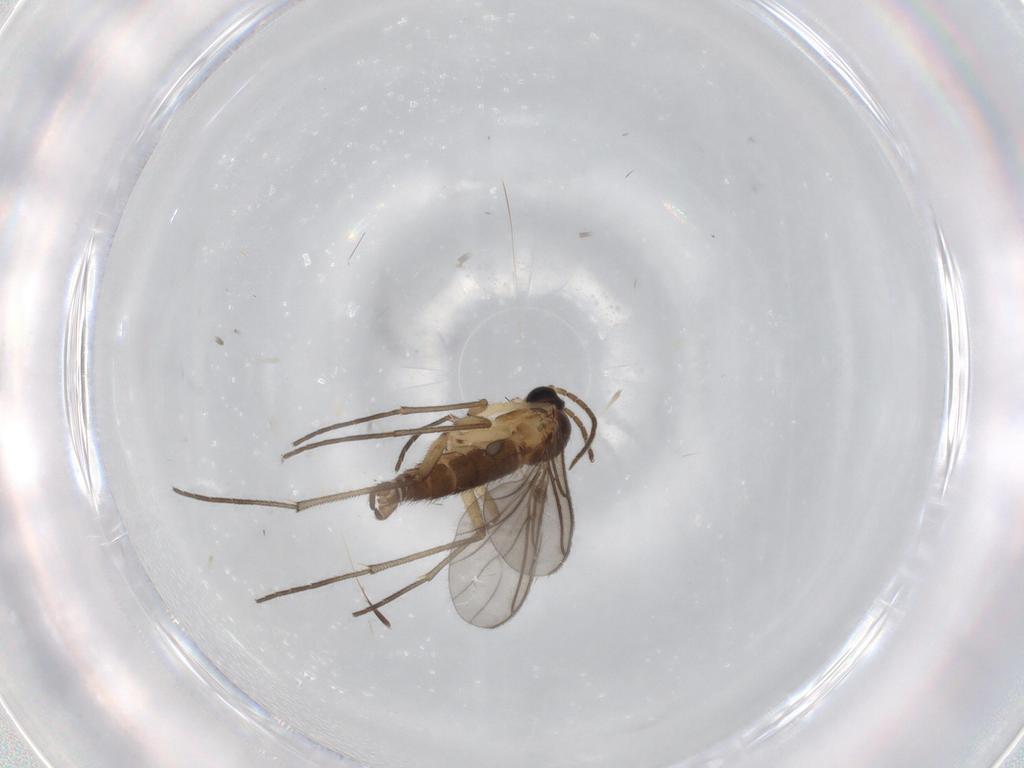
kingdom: Animalia
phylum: Arthropoda
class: Insecta
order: Diptera
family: Sciaridae
